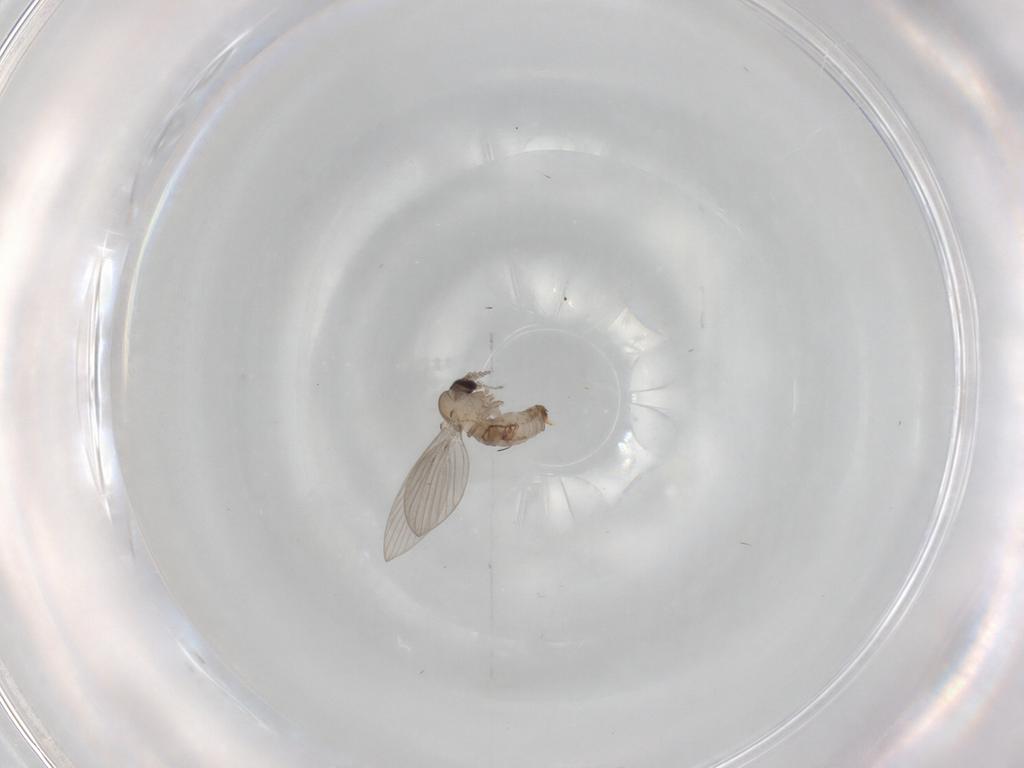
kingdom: Animalia
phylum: Arthropoda
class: Insecta
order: Diptera
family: Psychodidae
